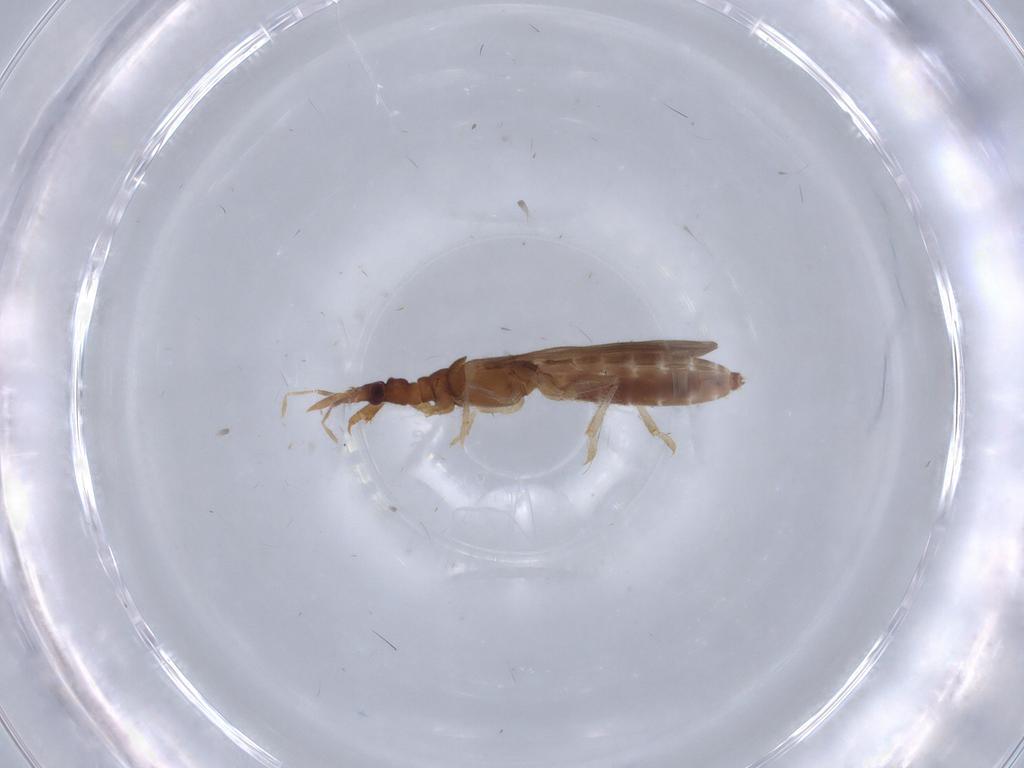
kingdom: Animalia
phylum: Arthropoda
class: Insecta
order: Hemiptera
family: Enicocephalidae
